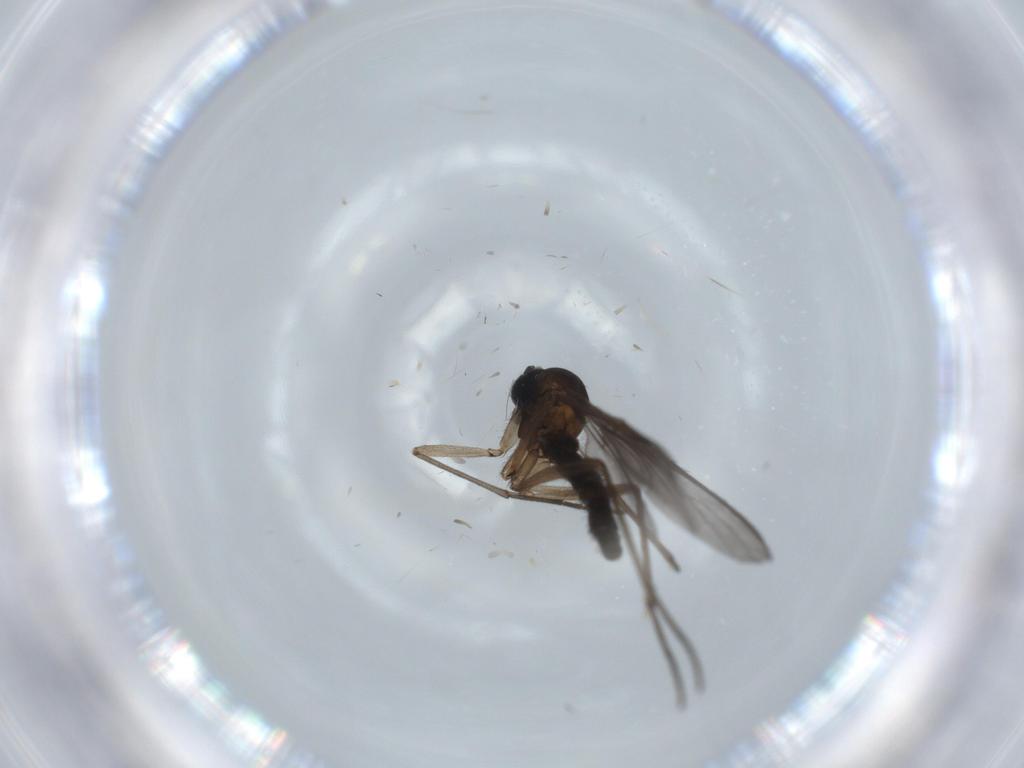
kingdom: Animalia
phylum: Arthropoda
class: Insecta
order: Diptera
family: Sciaridae
